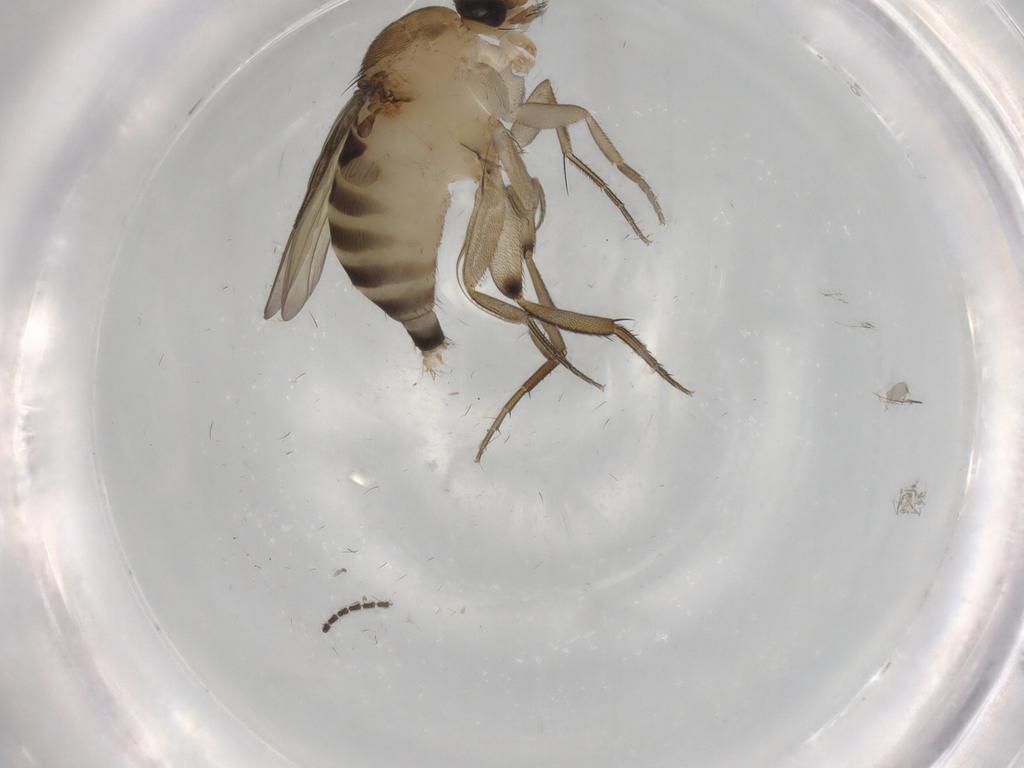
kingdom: Animalia
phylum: Arthropoda
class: Insecta
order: Diptera
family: Phoridae
